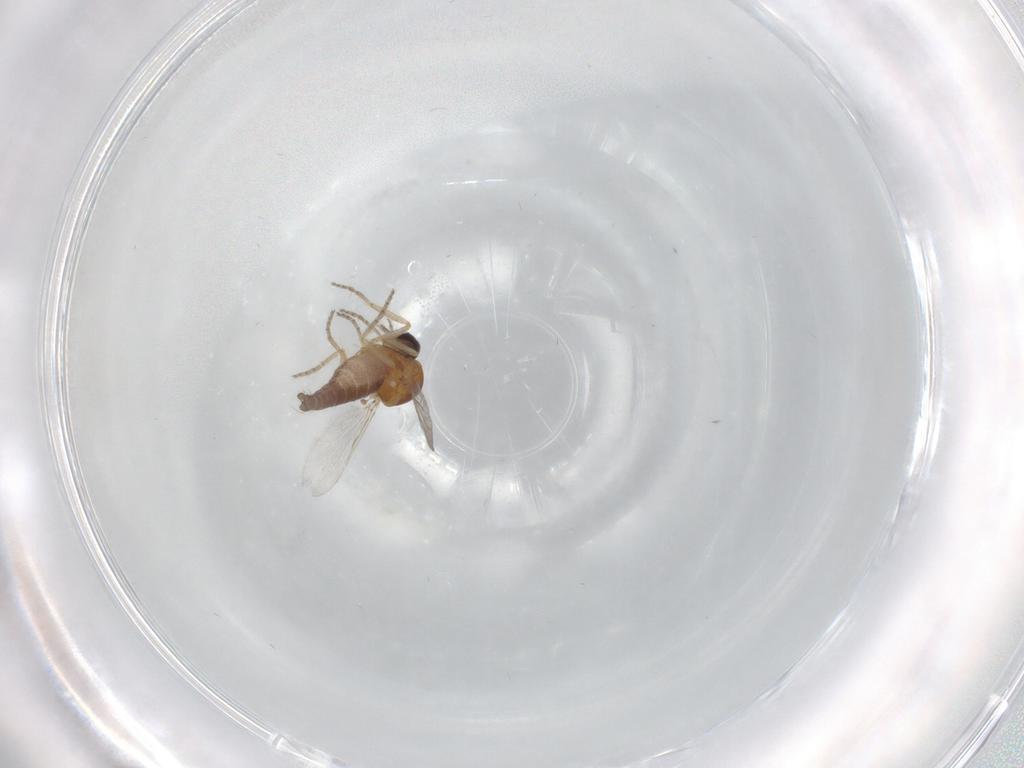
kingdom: Animalia
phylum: Arthropoda
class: Insecta
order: Diptera
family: Ceratopogonidae
